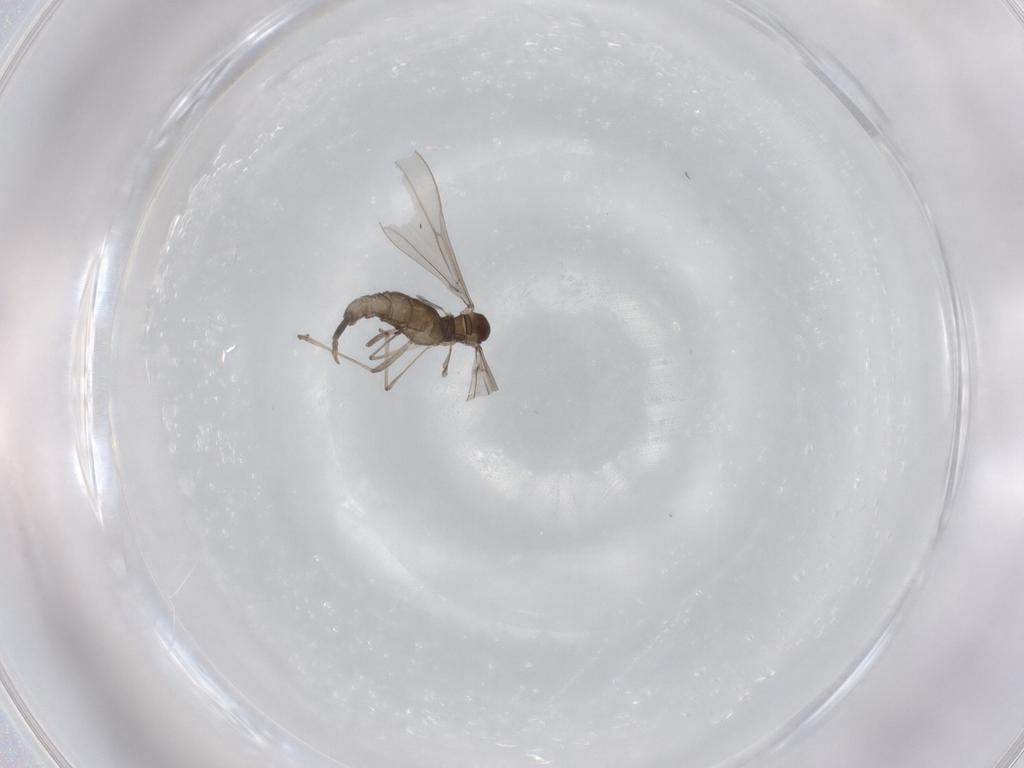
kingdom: Animalia
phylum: Arthropoda
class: Insecta
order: Diptera
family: Cecidomyiidae
